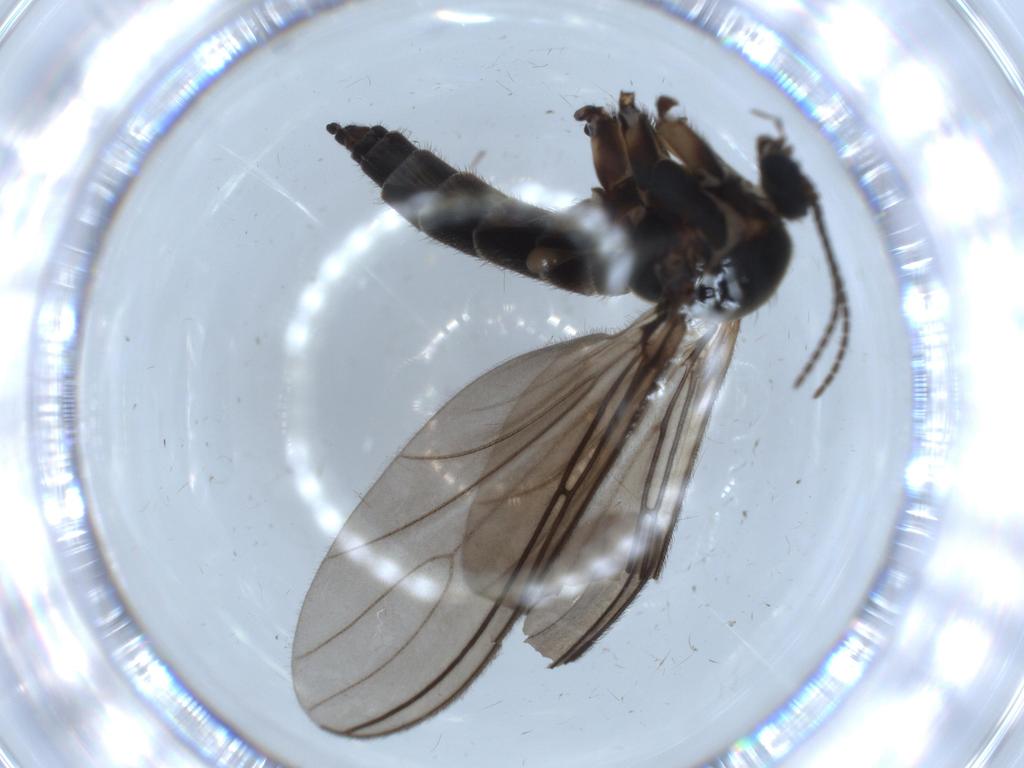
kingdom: Animalia
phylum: Arthropoda
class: Insecta
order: Diptera
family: Sciaridae
